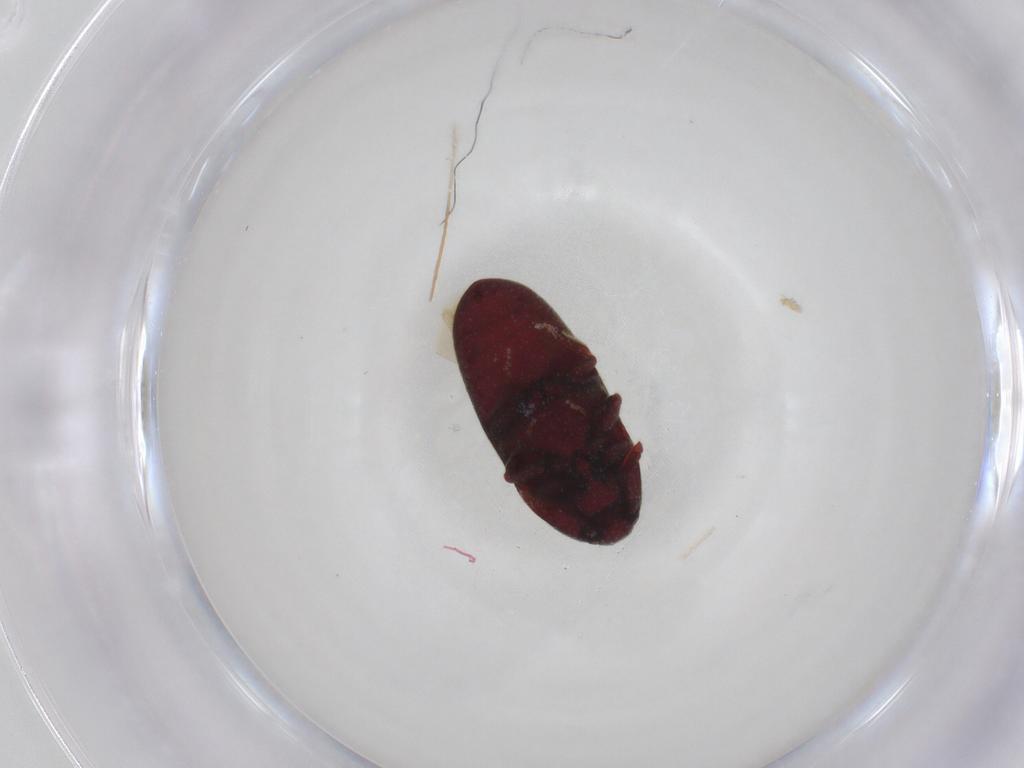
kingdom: Animalia
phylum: Arthropoda
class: Insecta
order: Coleoptera
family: Throscidae
